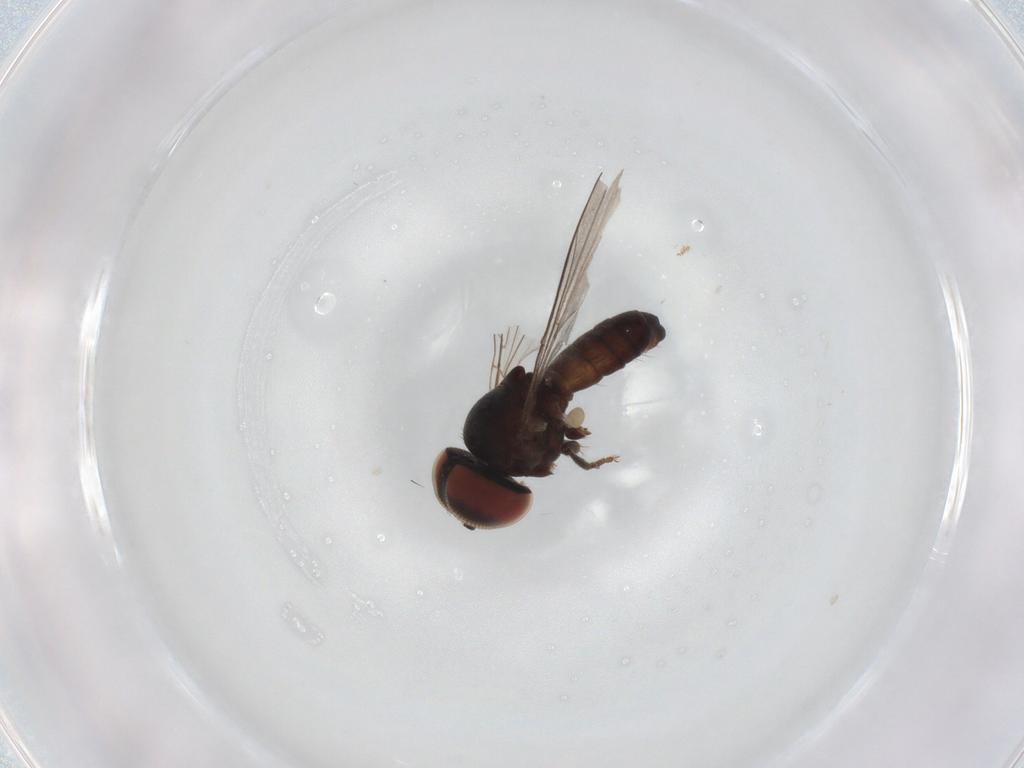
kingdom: Animalia
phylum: Arthropoda
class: Insecta
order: Diptera
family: Pipunculidae
